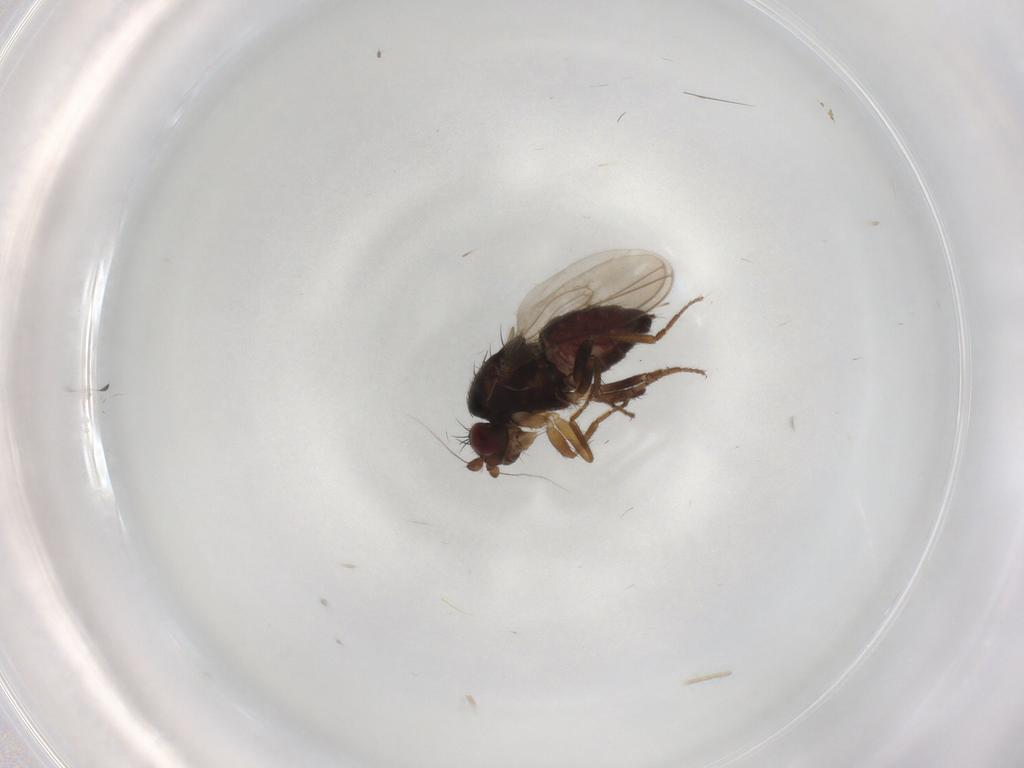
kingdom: Animalia
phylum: Arthropoda
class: Insecta
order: Diptera
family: Sphaeroceridae
